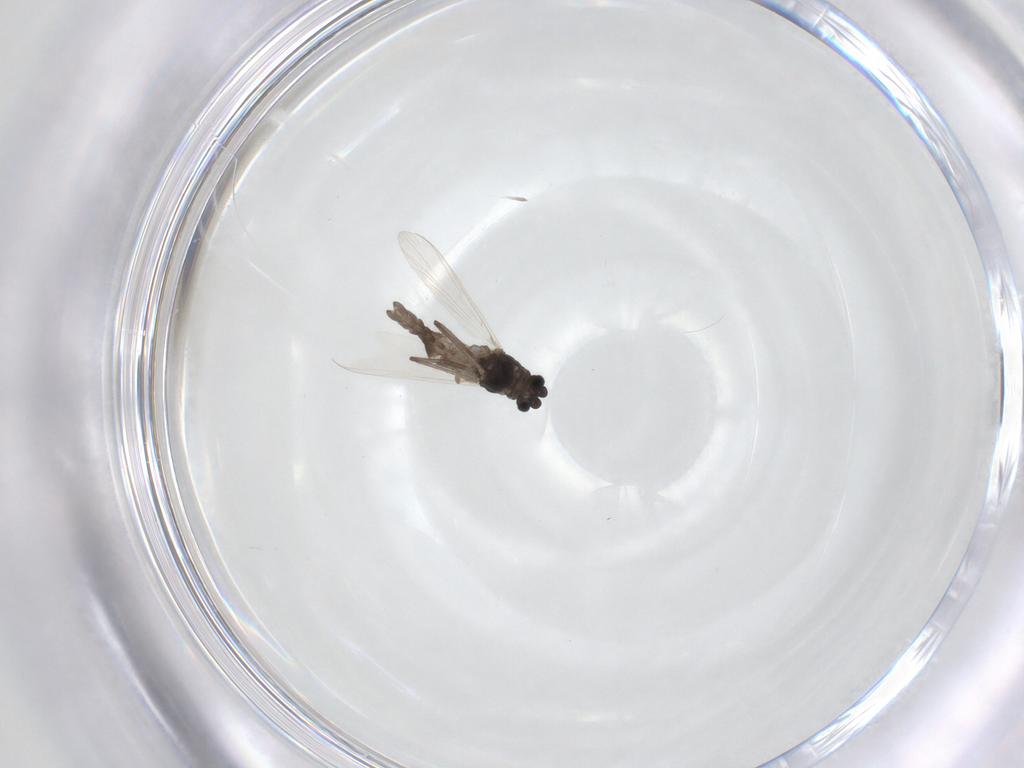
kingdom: Animalia
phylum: Arthropoda
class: Insecta
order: Diptera
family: Chironomidae
